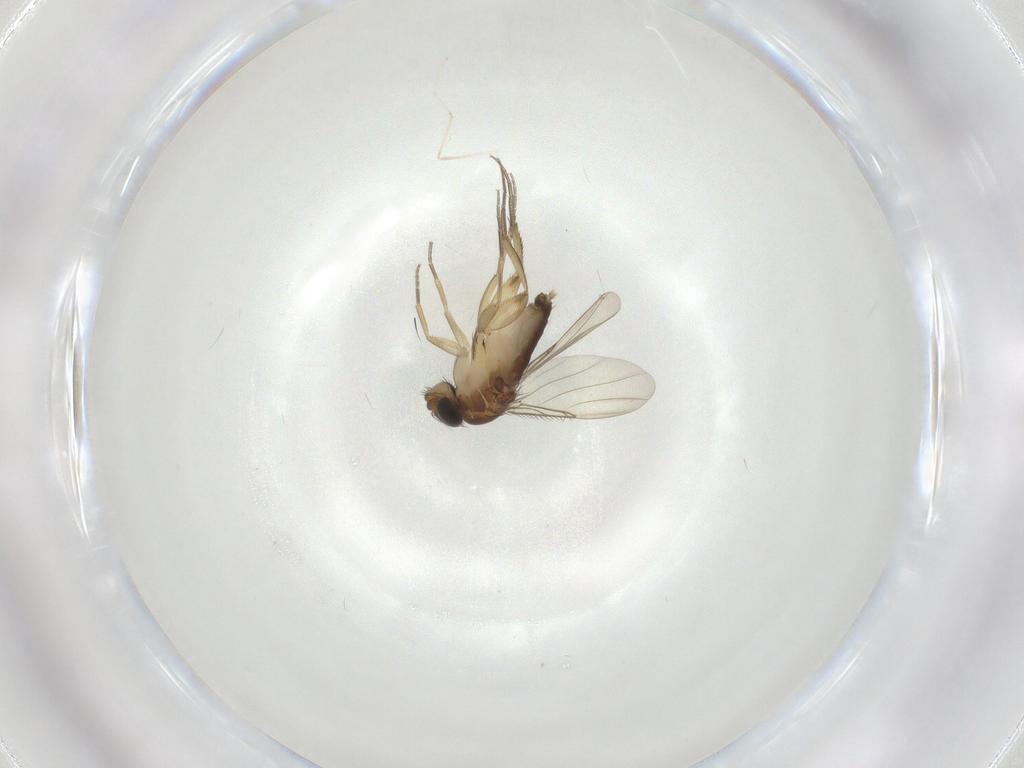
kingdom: Animalia
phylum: Arthropoda
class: Insecta
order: Diptera
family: Phoridae
